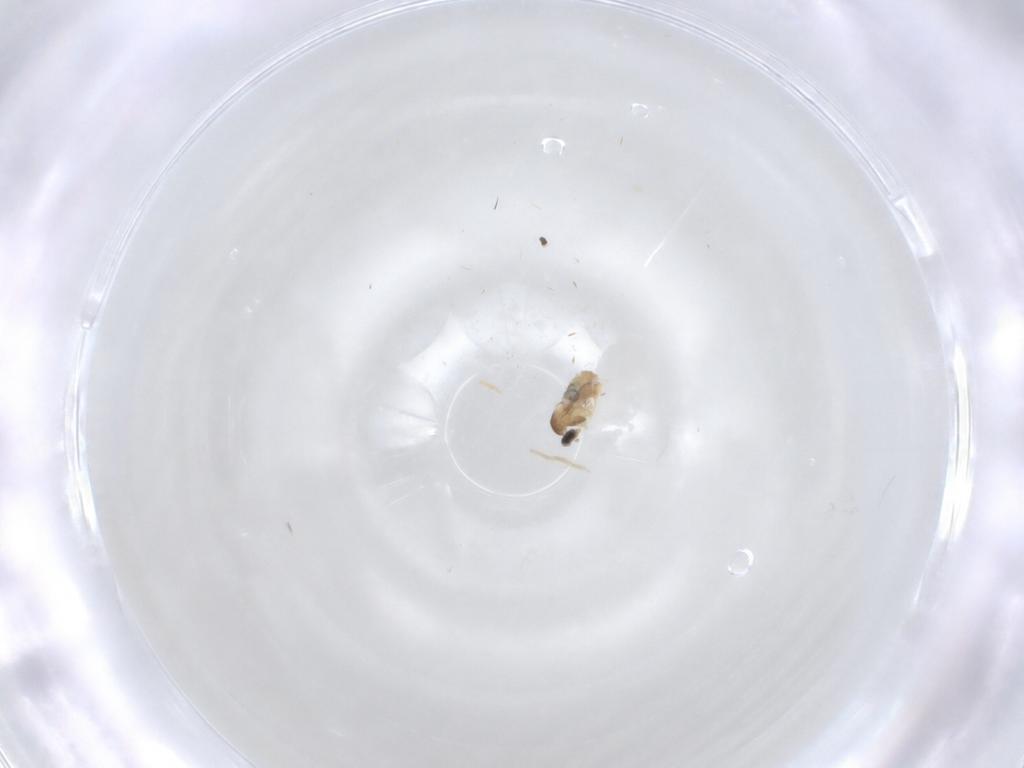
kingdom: Animalia
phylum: Arthropoda
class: Insecta
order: Diptera
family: Cecidomyiidae
